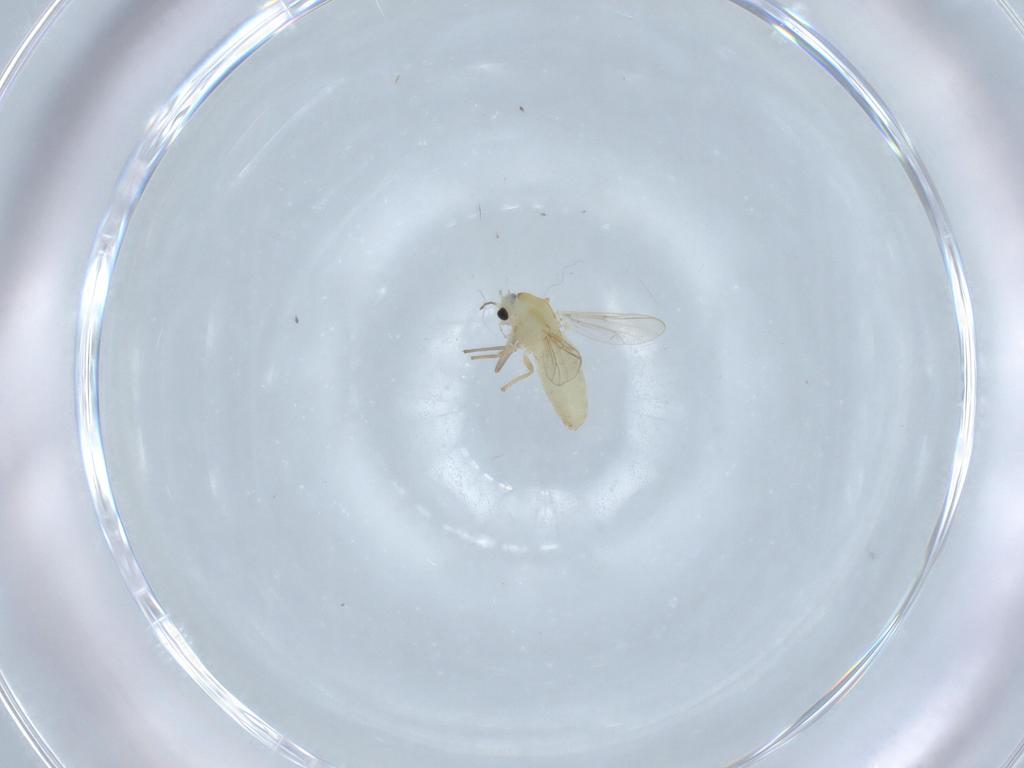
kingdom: Animalia
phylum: Arthropoda
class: Insecta
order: Diptera
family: Chironomidae
